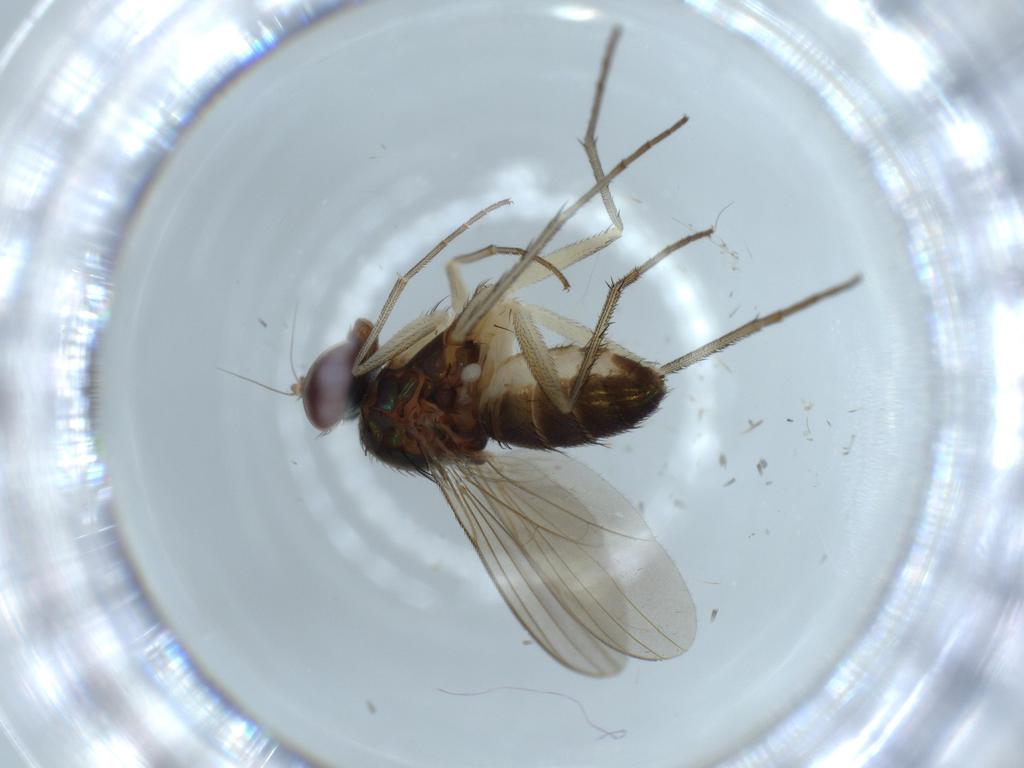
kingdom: Animalia
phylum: Arthropoda
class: Insecta
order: Diptera
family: Dolichopodidae
